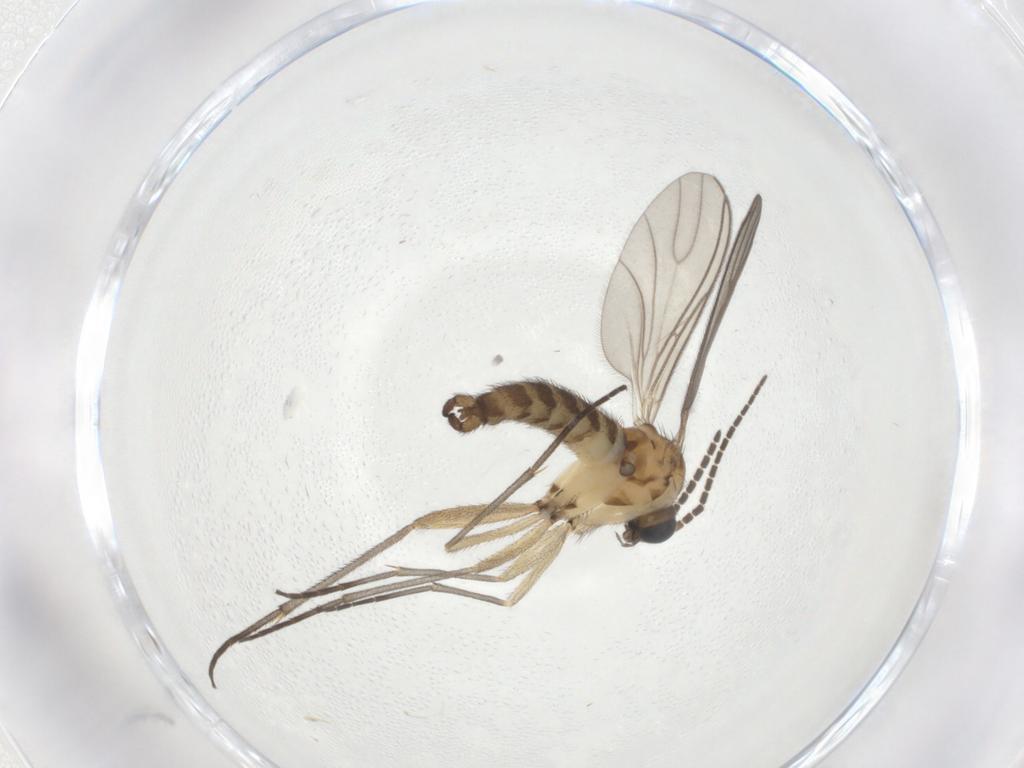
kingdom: Animalia
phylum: Arthropoda
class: Insecta
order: Diptera
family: Sciaridae
